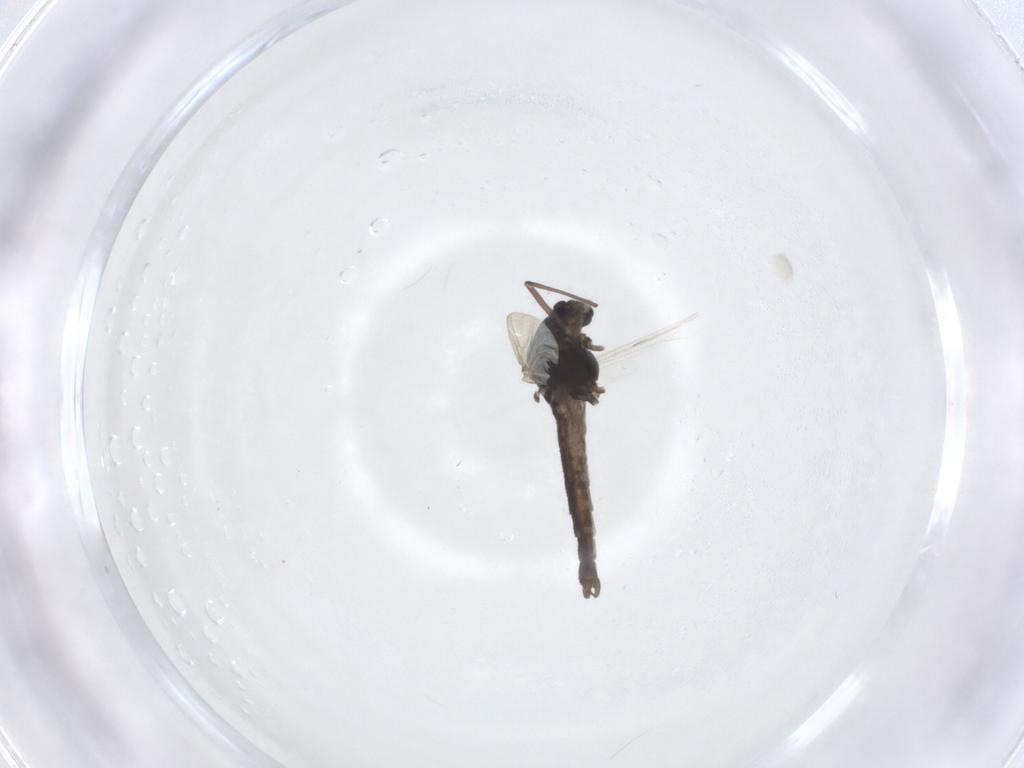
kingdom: Animalia
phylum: Arthropoda
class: Insecta
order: Diptera
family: Chironomidae
